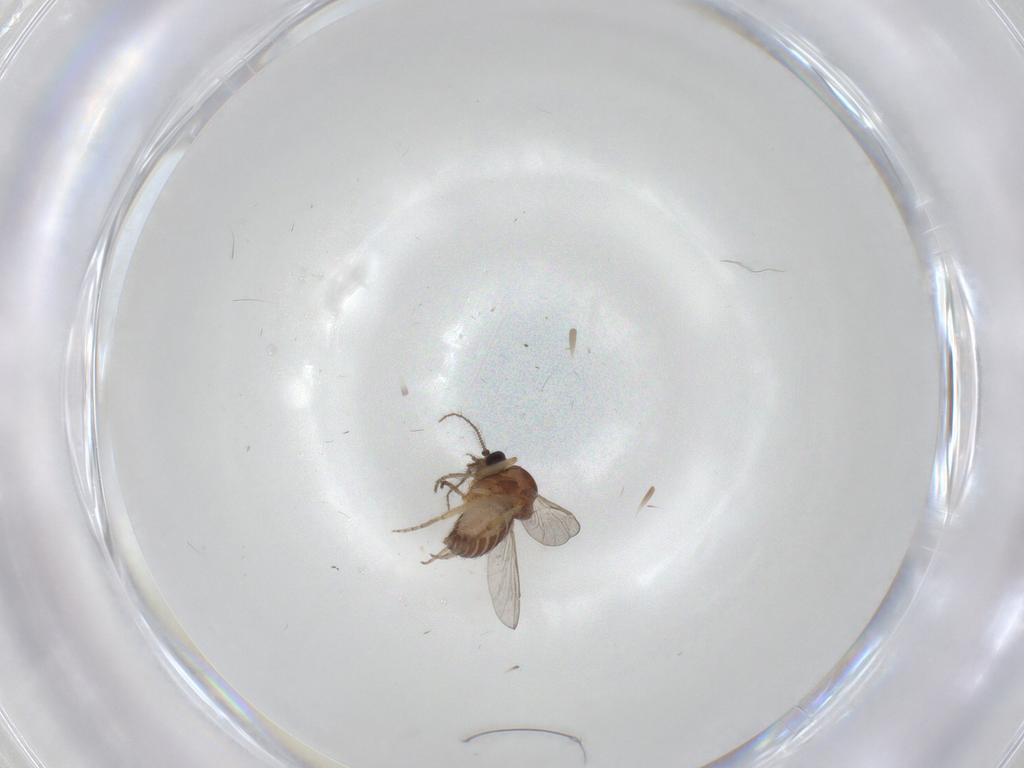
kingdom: Animalia
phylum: Arthropoda
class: Insecta
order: Diptera
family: Ceratopogonidae
